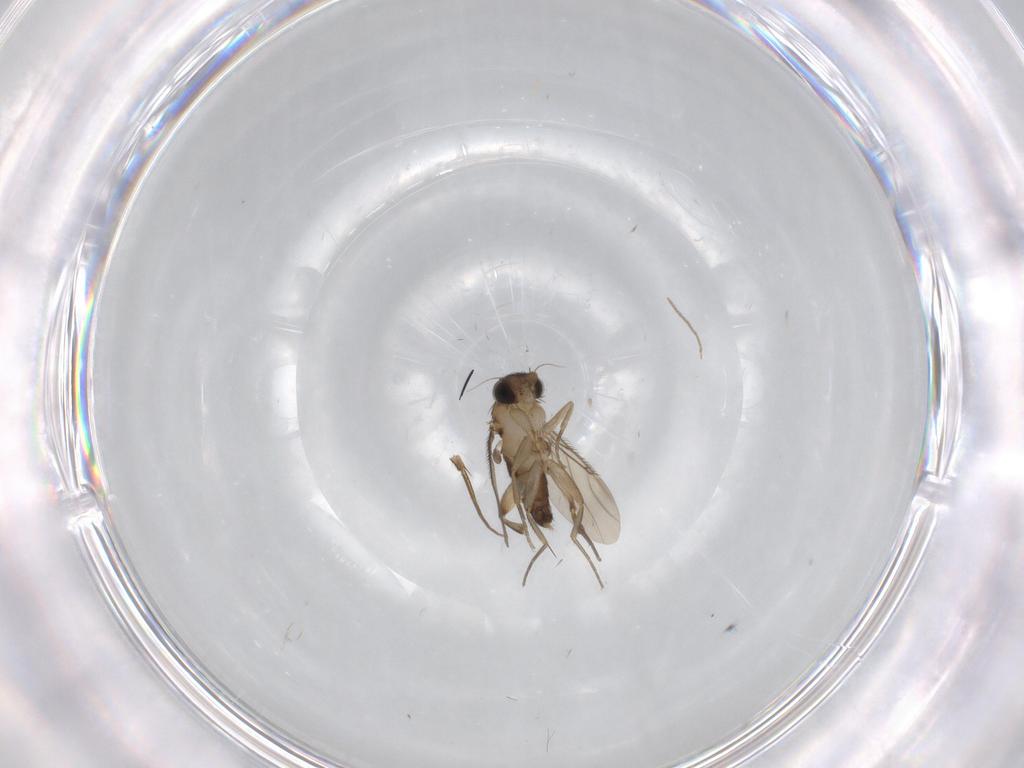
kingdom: Animalia
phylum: Arthropoda
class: Insecta
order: Diptera
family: Phoridae
